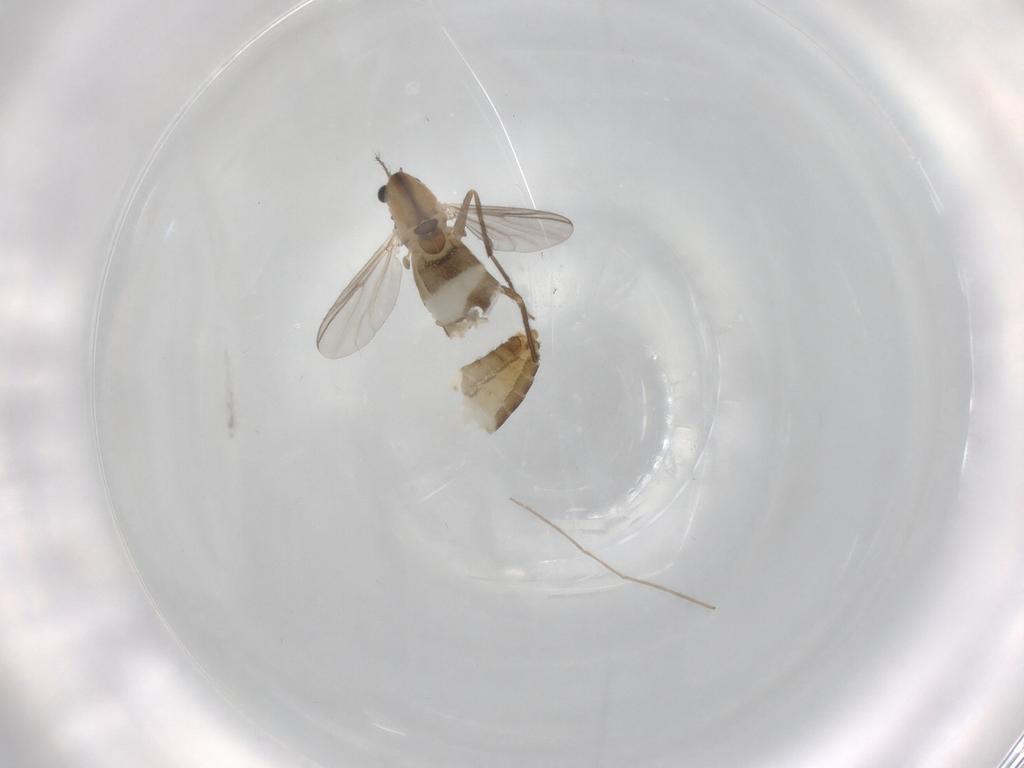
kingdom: Animalia
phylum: Arthropoda
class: Insecta
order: Diptera
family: Chironomidae
